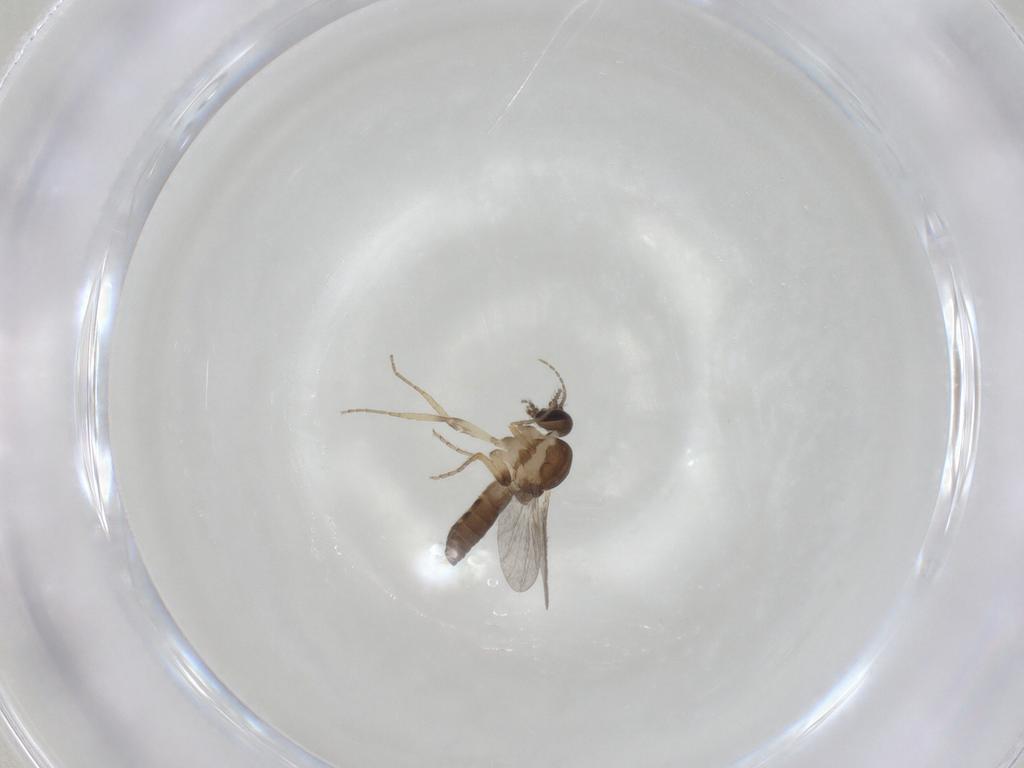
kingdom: Animalia
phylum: Arthropoda
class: Insecta
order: Diptera
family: Ceratopogonidae
